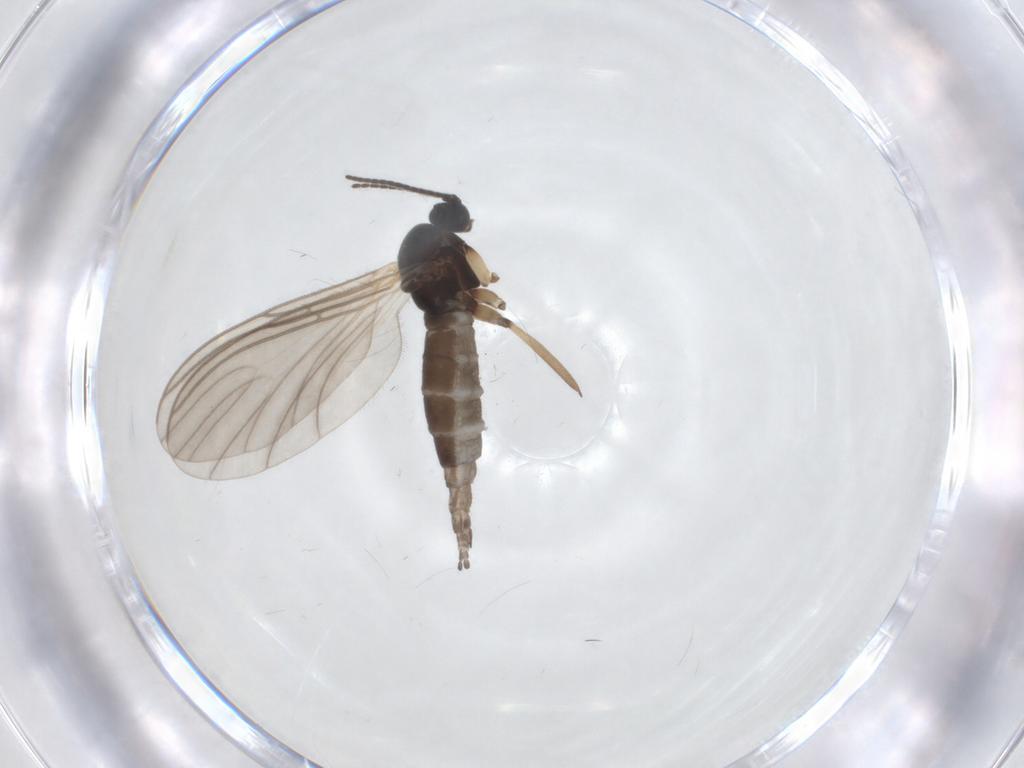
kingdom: Animalia
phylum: Arthropoda
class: Insecta
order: Diptera
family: Sciaridae
